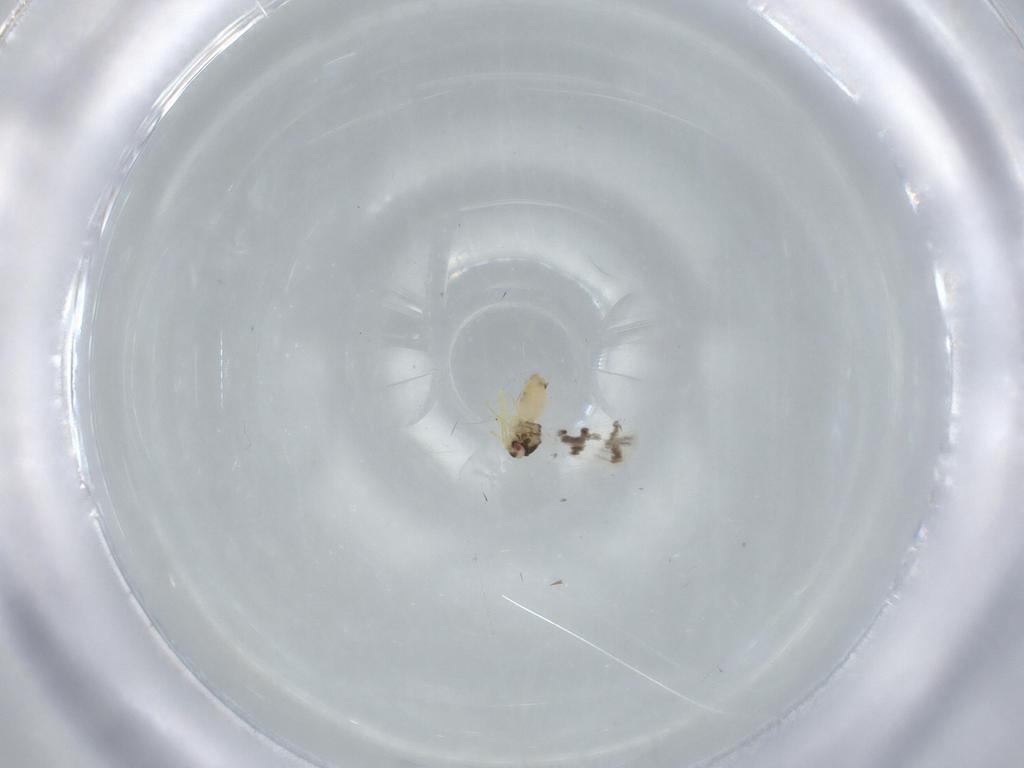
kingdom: Animalia
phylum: Arthropoda
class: Insecta
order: Hemiptera
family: Aleyrodidae
